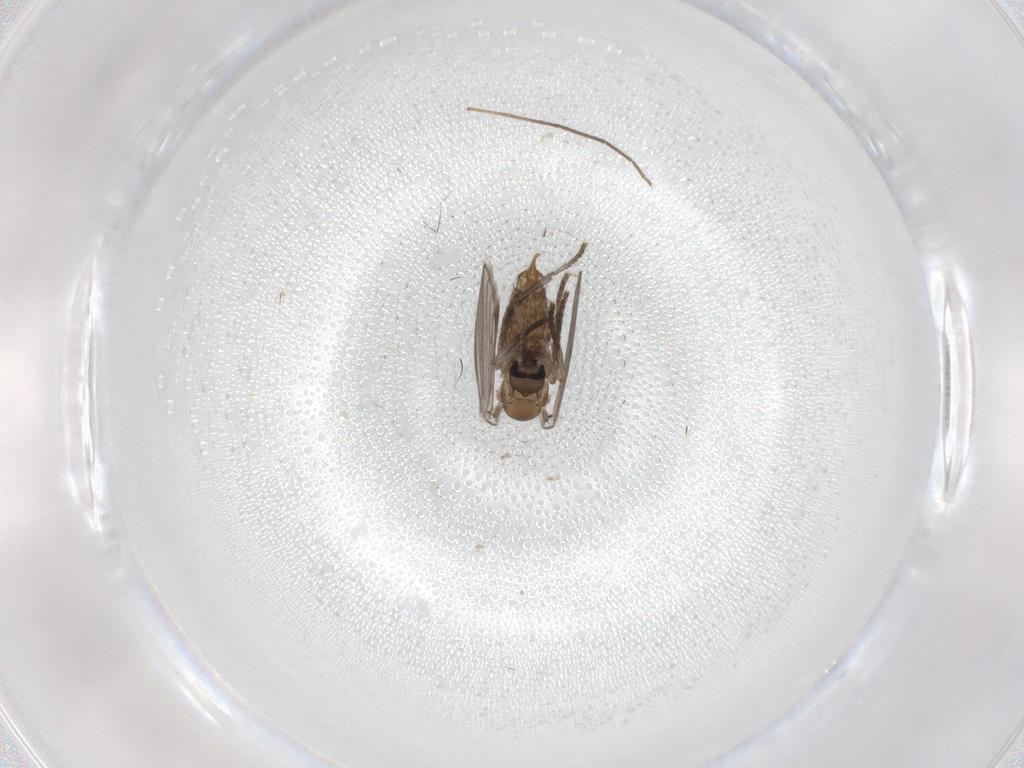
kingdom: Animalia
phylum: Arthropoda
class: Insecta
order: Diptera
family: Chironomidae
